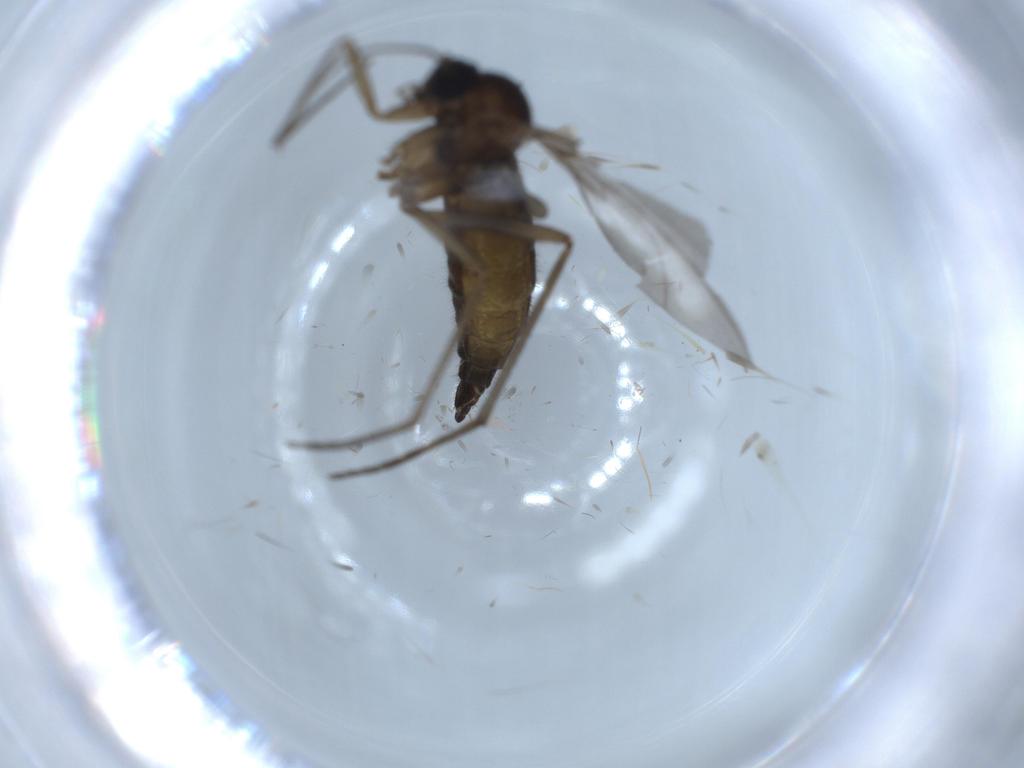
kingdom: Animalia
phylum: Arthropoda
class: Insecta
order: Diptera
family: Sciaridae
